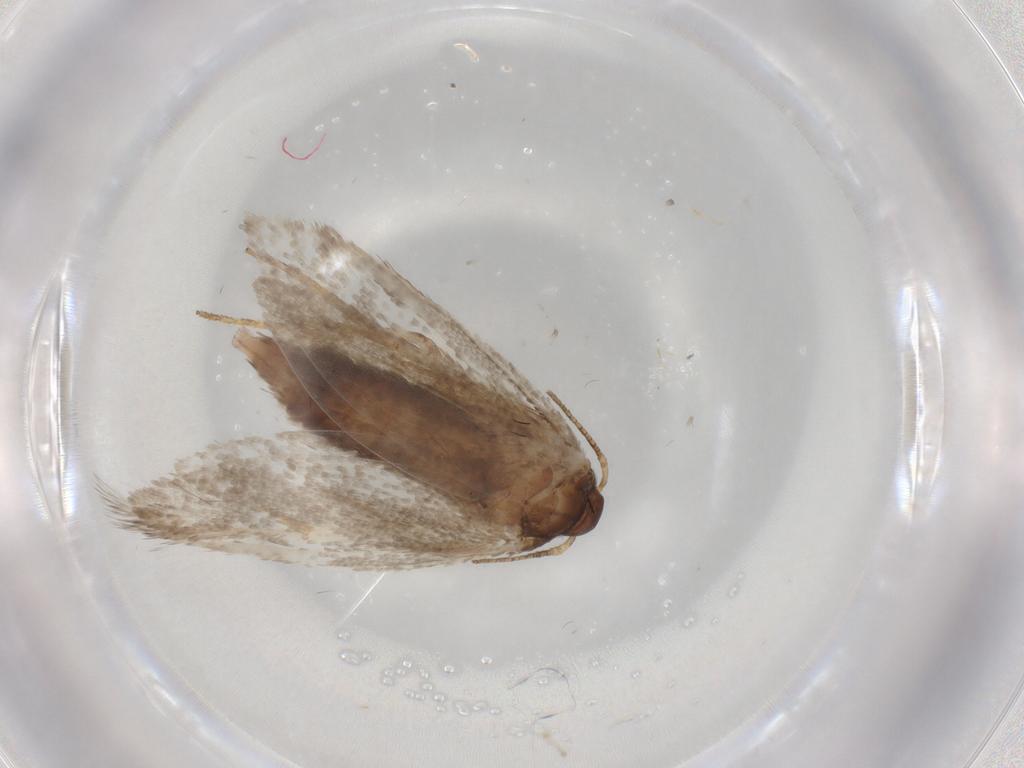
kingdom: Animalia
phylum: Arthropoda
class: Insecta
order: Lepidoptera
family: Blastobasidae
